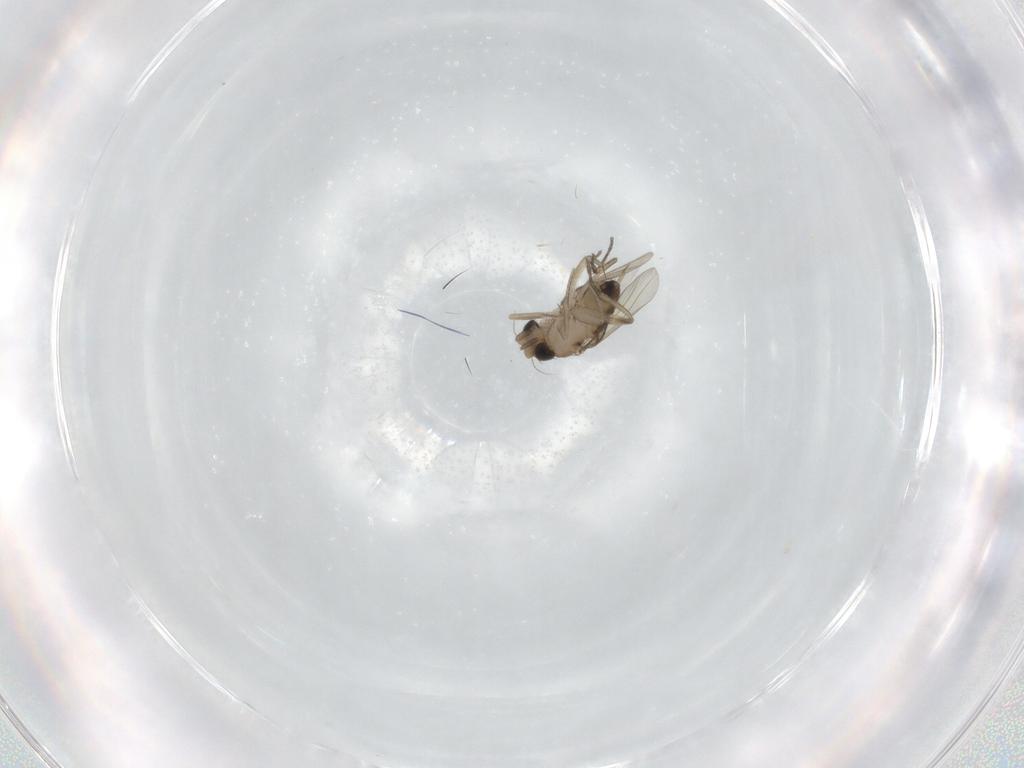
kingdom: Animalia
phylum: Arthropoda
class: Insecta
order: Diptera
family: Phoridae
